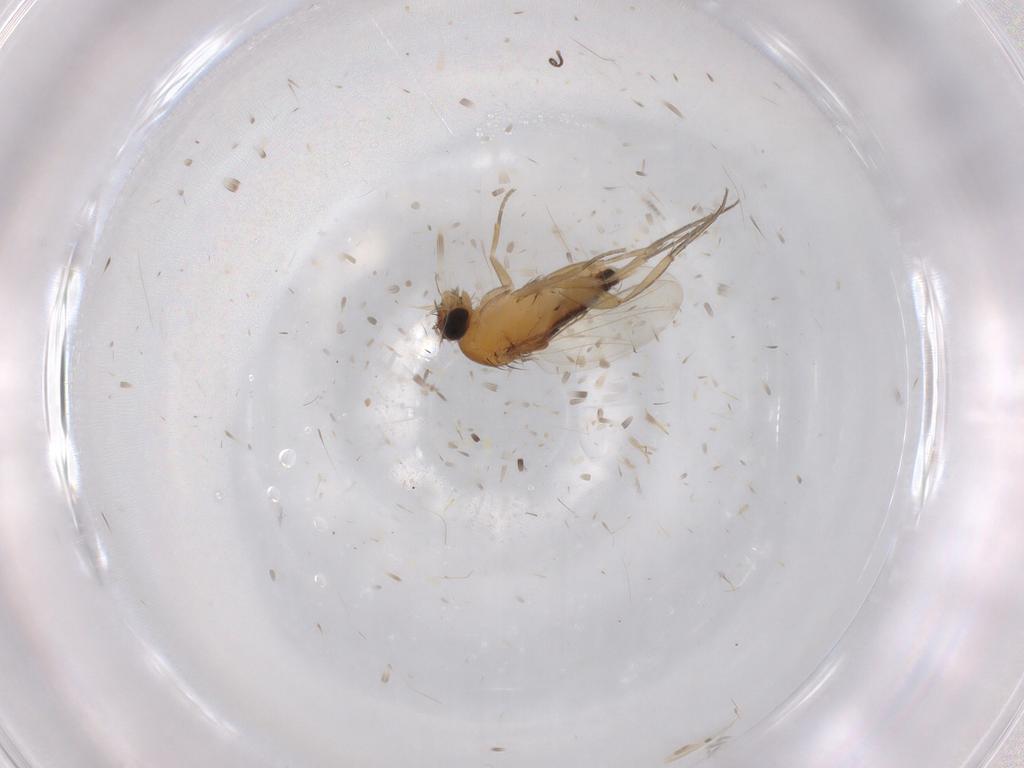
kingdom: Animalia
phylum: Arthropoda
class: Insecta
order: Diptera
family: Phoridae
